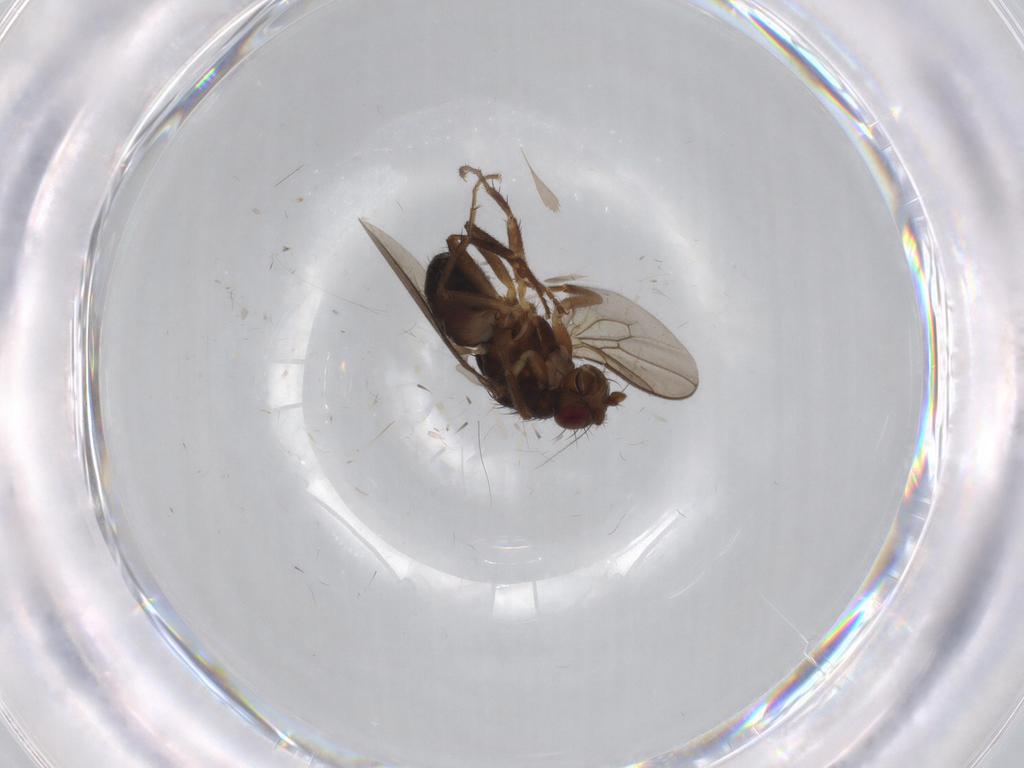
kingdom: Animalia
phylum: Arthropoda
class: Insecta
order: Diptera
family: Sphaeroceridae
